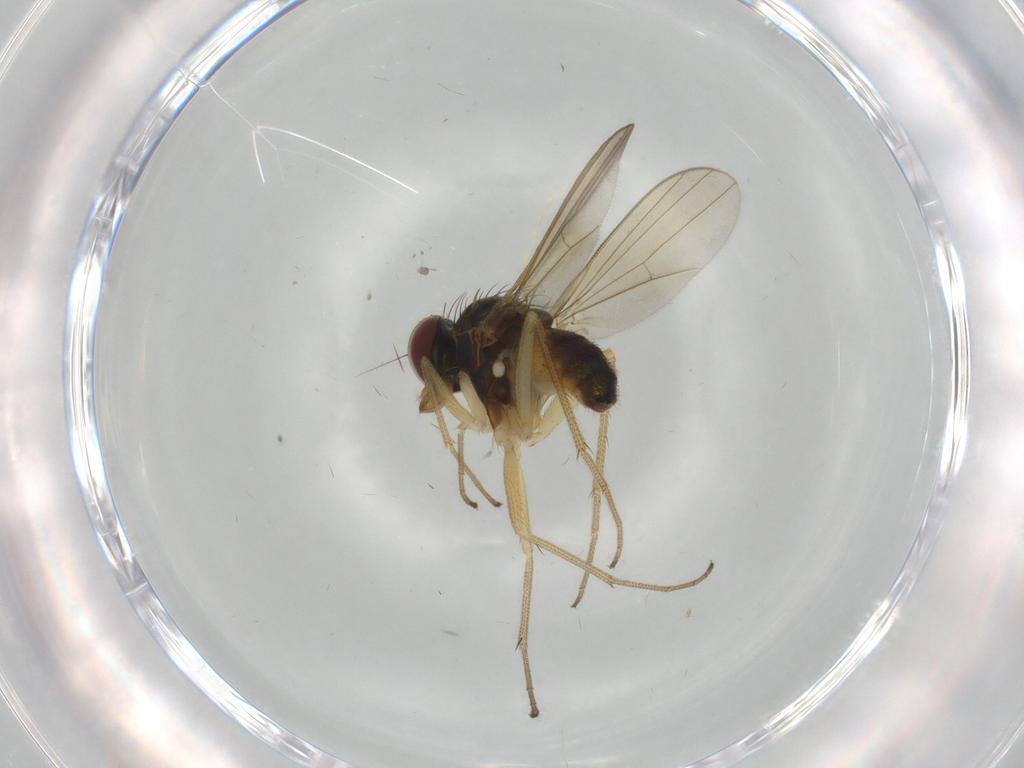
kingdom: Animalia
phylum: Arthropoda
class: Insecta
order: Diptera
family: Dolichopodidae
